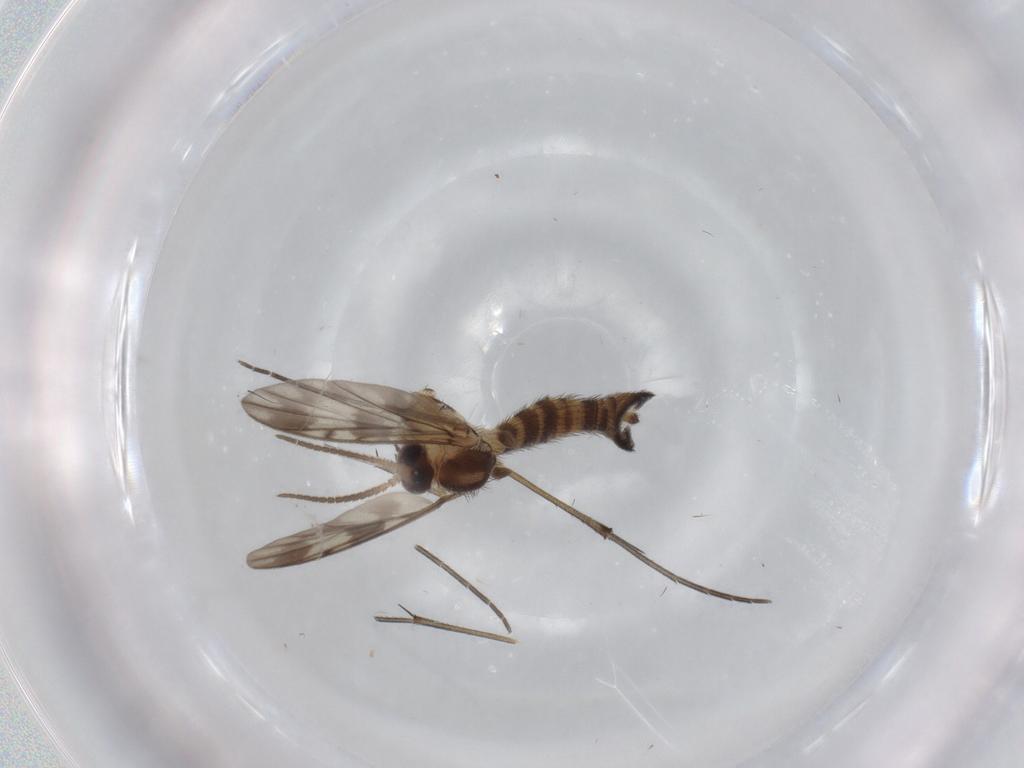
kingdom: Animalia
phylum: Arthropoda
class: Insecta
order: Diptera
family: Keroplatidae
